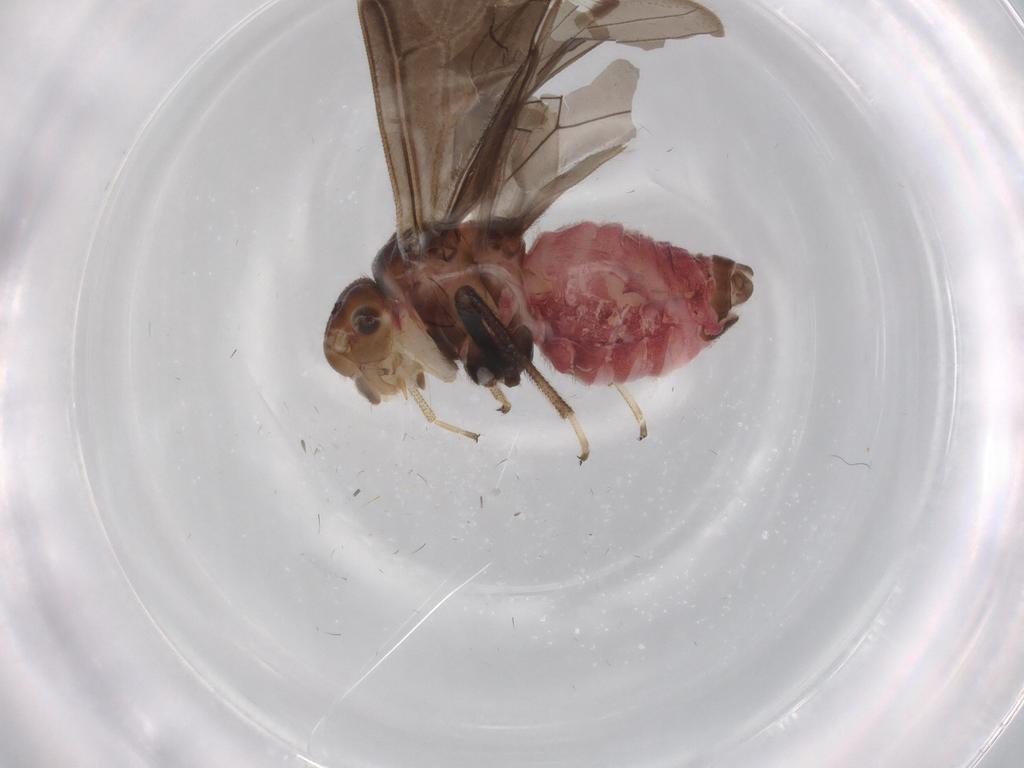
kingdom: Animalia
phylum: Arthropoda
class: Insecta
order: Psocodea
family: Amphipsocidae
